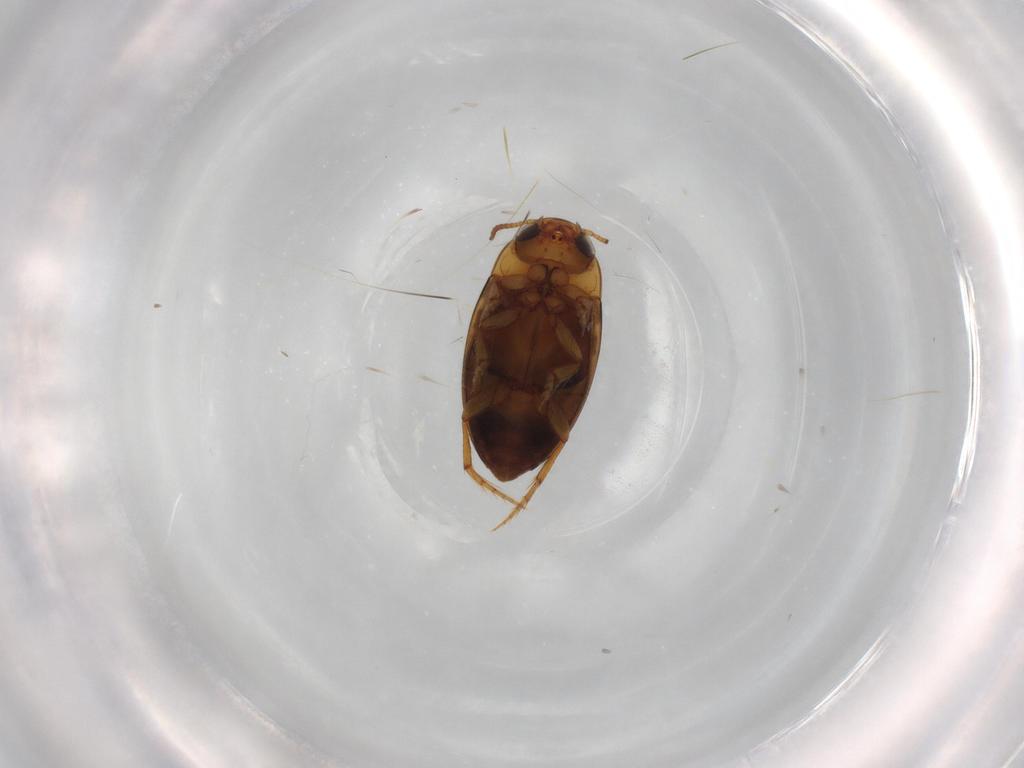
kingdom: Animalia
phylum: Arthropoda
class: Insecta
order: Coleoptera
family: Dytiscidae
